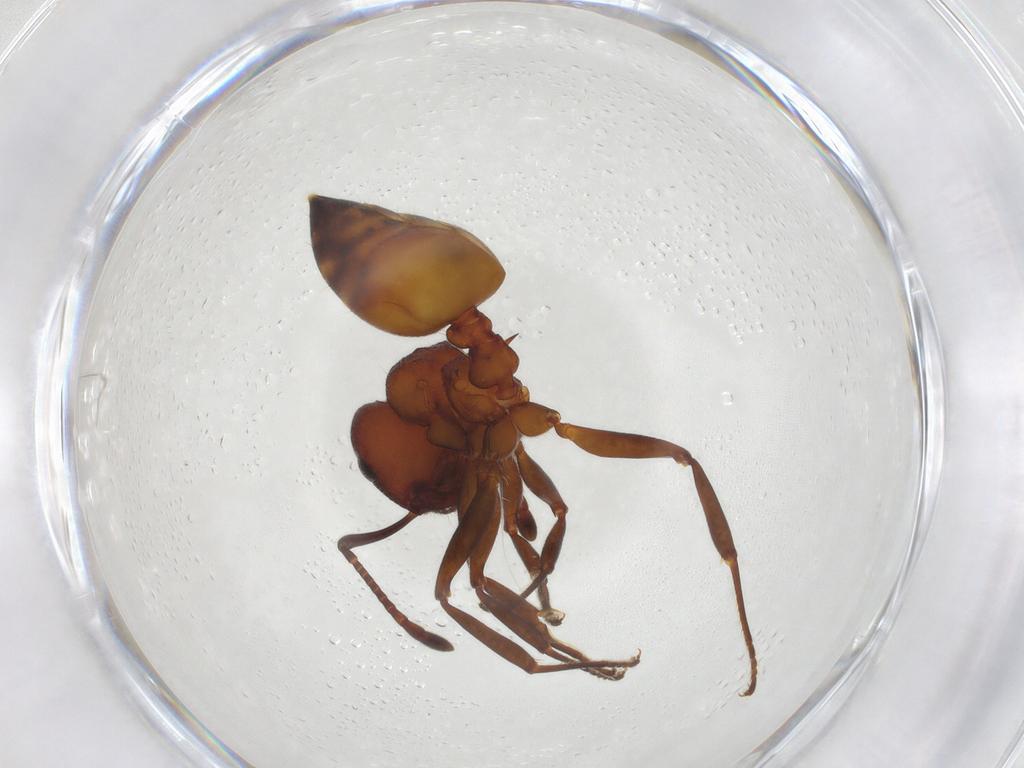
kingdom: Animalia
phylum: Arthropoda
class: Insecta
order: Hymenoptera
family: Formicidae
